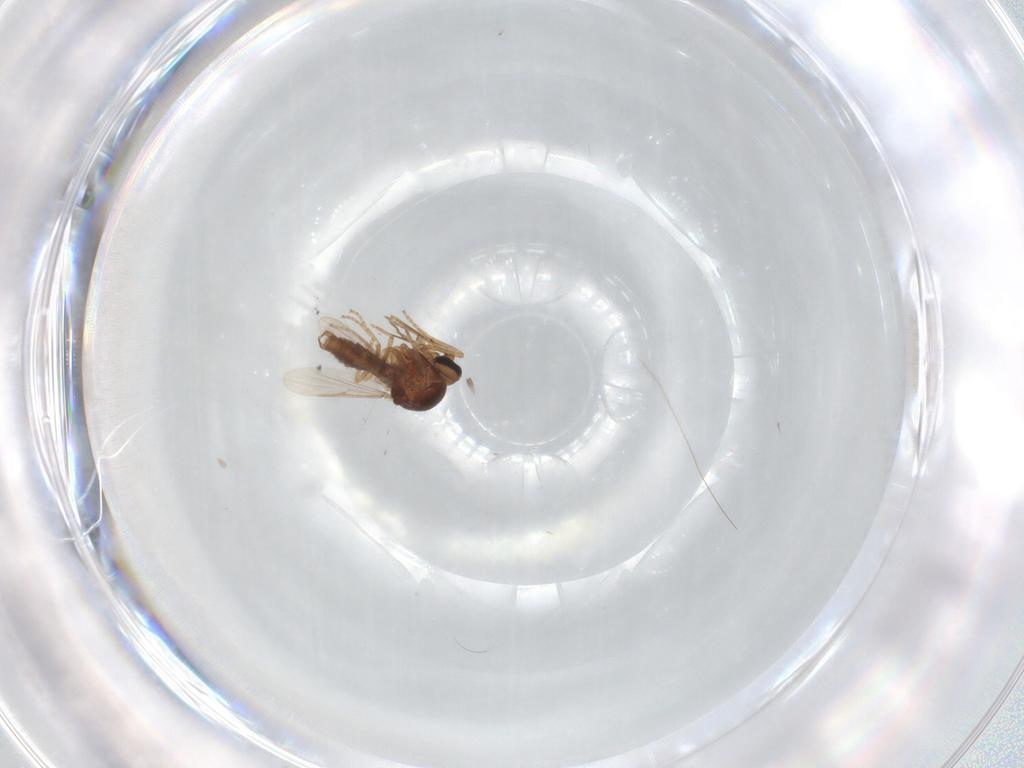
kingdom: Animalia
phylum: Arthropoda
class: Insecta
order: Diptera
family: Ceratopogonidae
